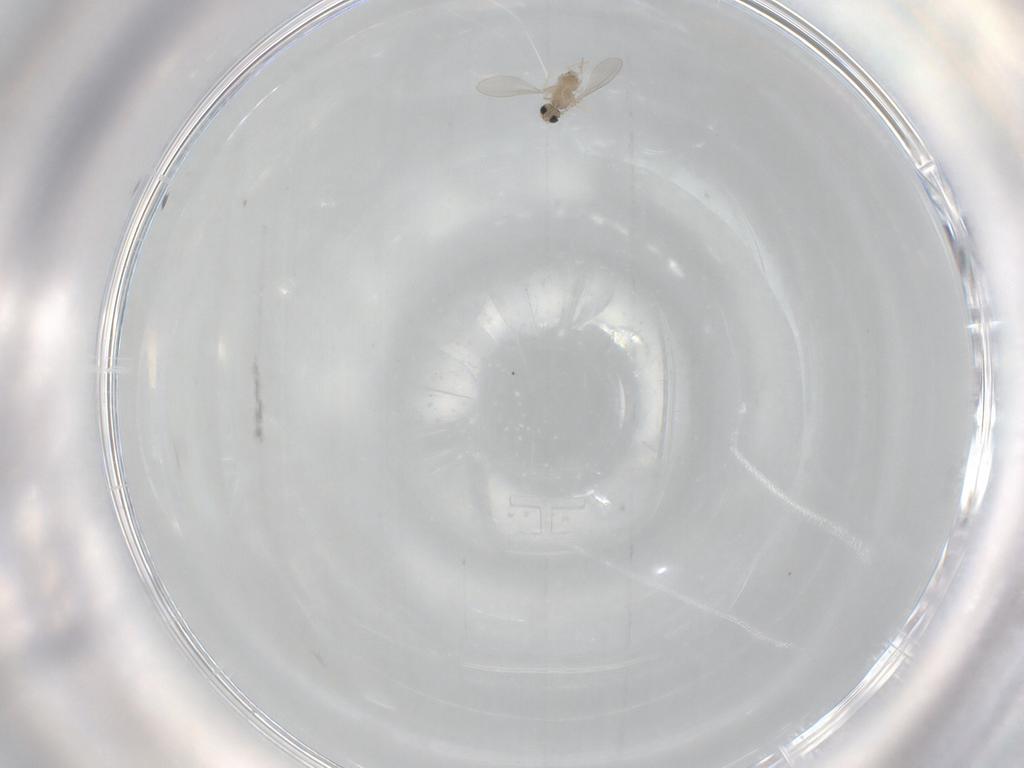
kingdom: Animalia
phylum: Arthropoda
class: Insecta
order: Diptera
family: Cecidomyiidae
